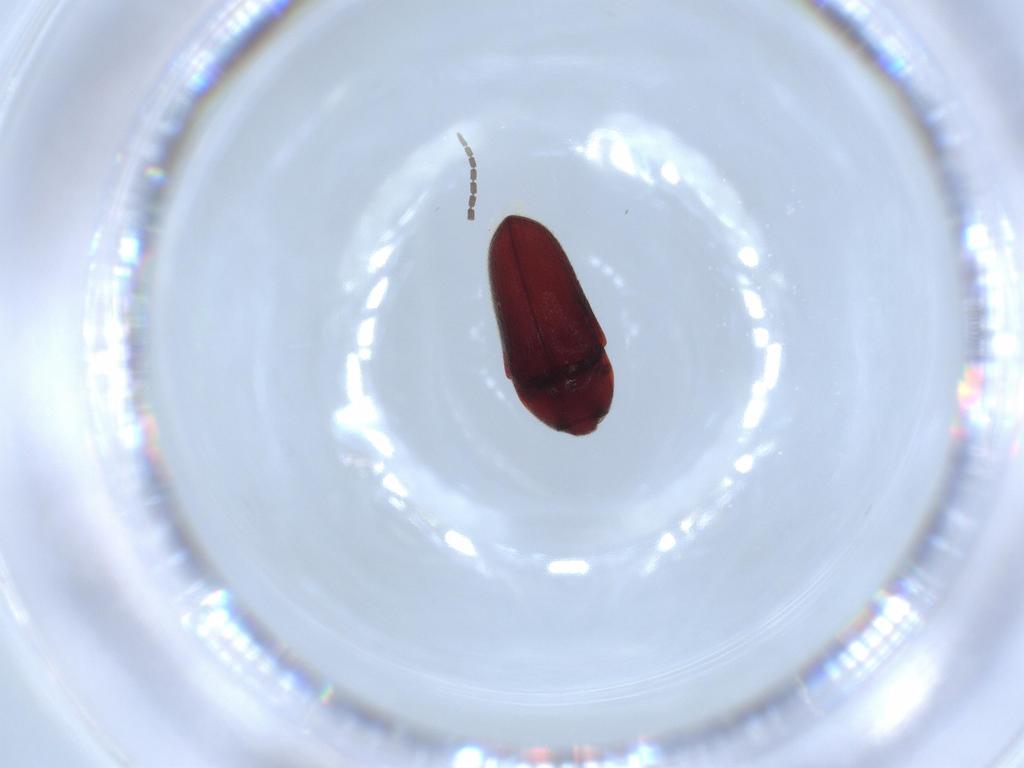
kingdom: Animalia
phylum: Arthropoda
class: Insecta
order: Coleoptera
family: Throscidae
